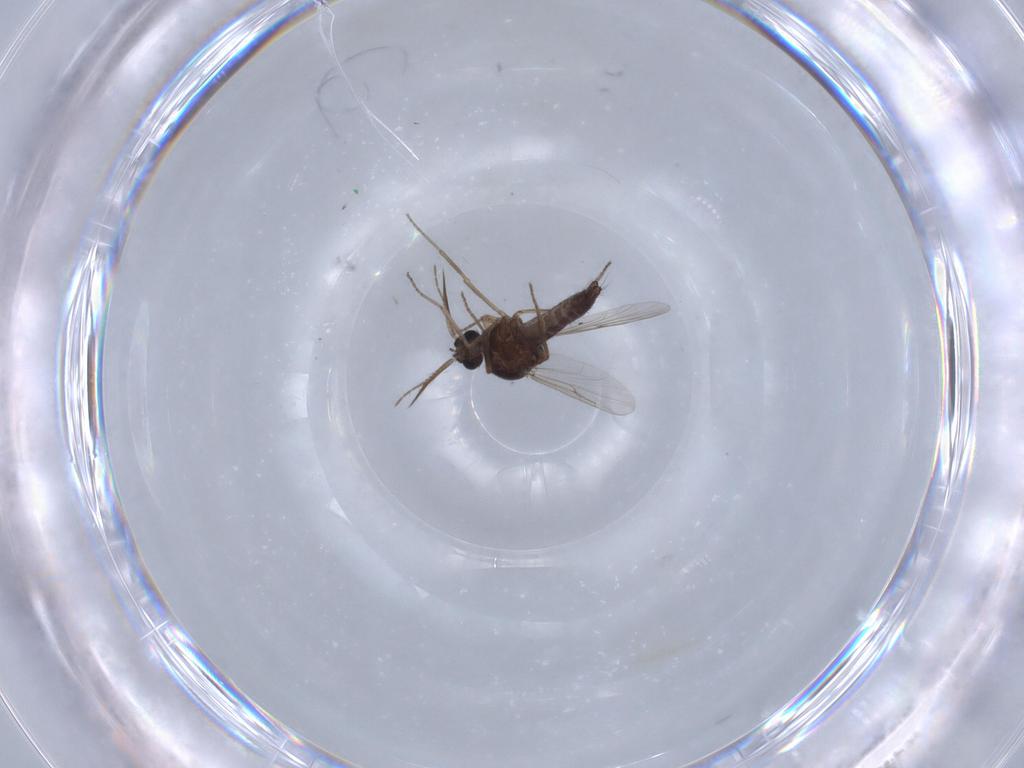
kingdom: Animalia
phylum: Arthropoda
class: Insecta
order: Diptera
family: Ceratopogonidae
